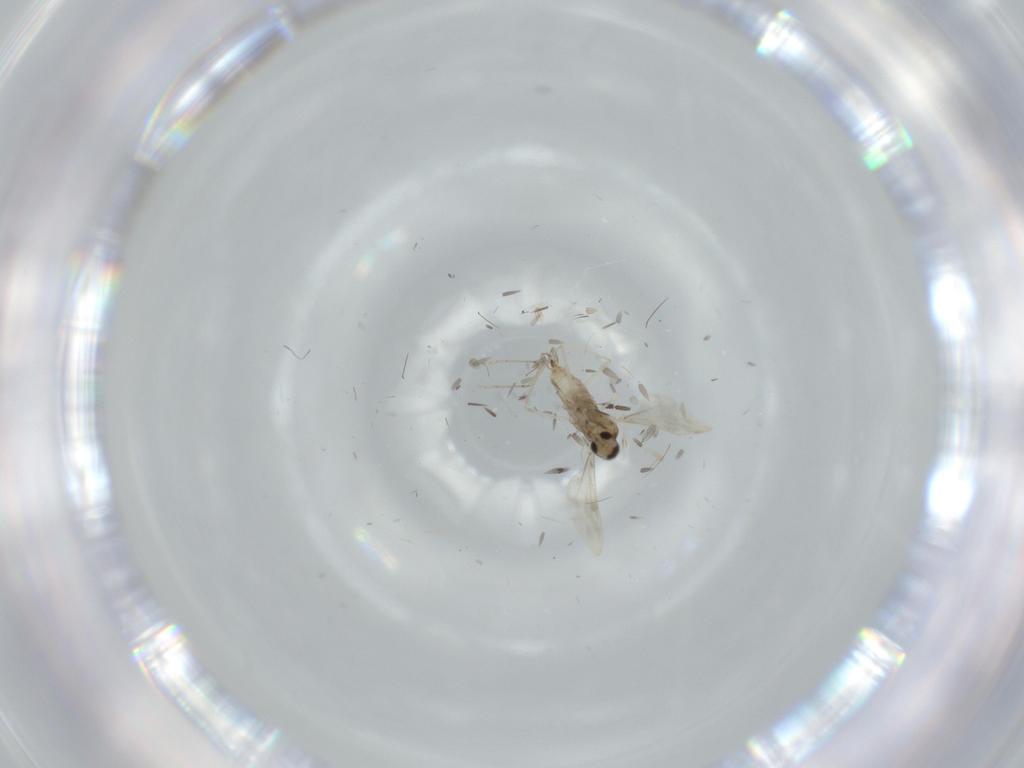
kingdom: Animalia
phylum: Arthropoda
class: Insecta
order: Diptera
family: Sciaridae
